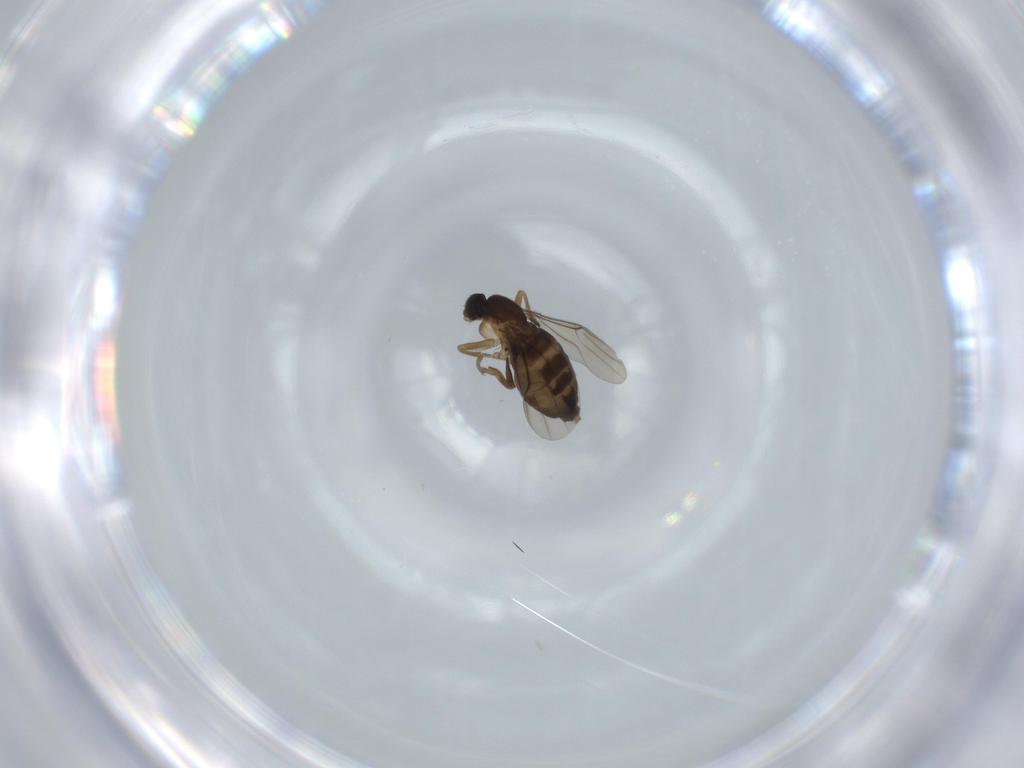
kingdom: Animalia
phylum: Arthropoda
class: Insecta
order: Diptera
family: Phoridae
